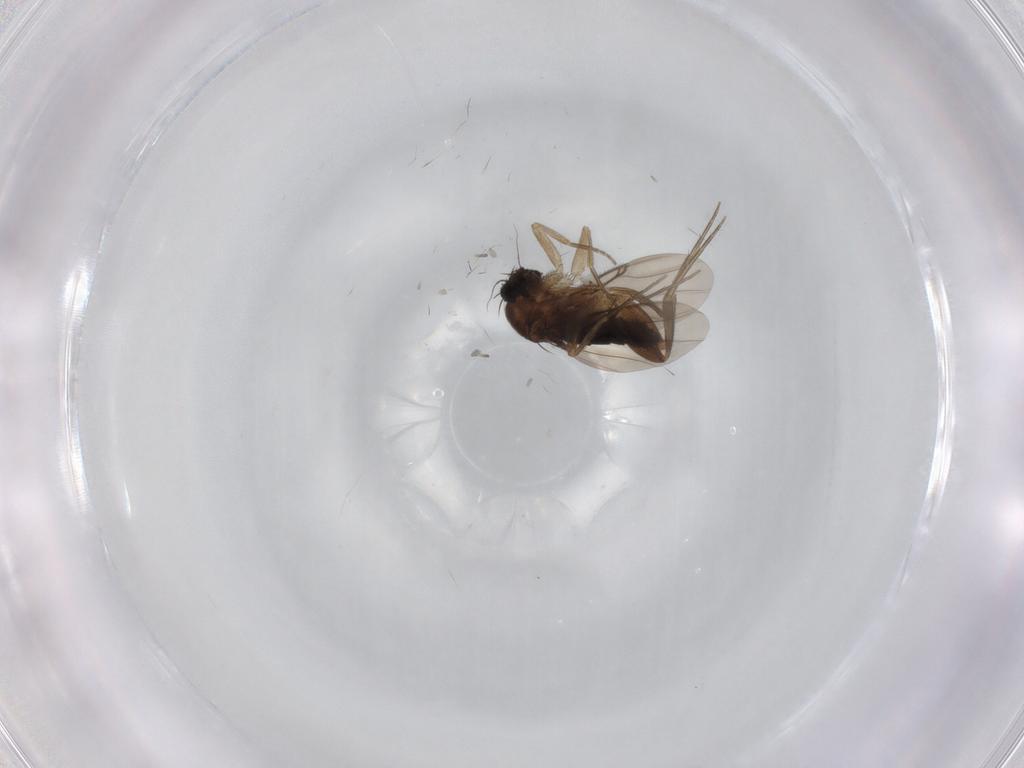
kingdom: Animalia
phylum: Arthropoda
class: Insecta
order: Diptera
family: Phoridae
